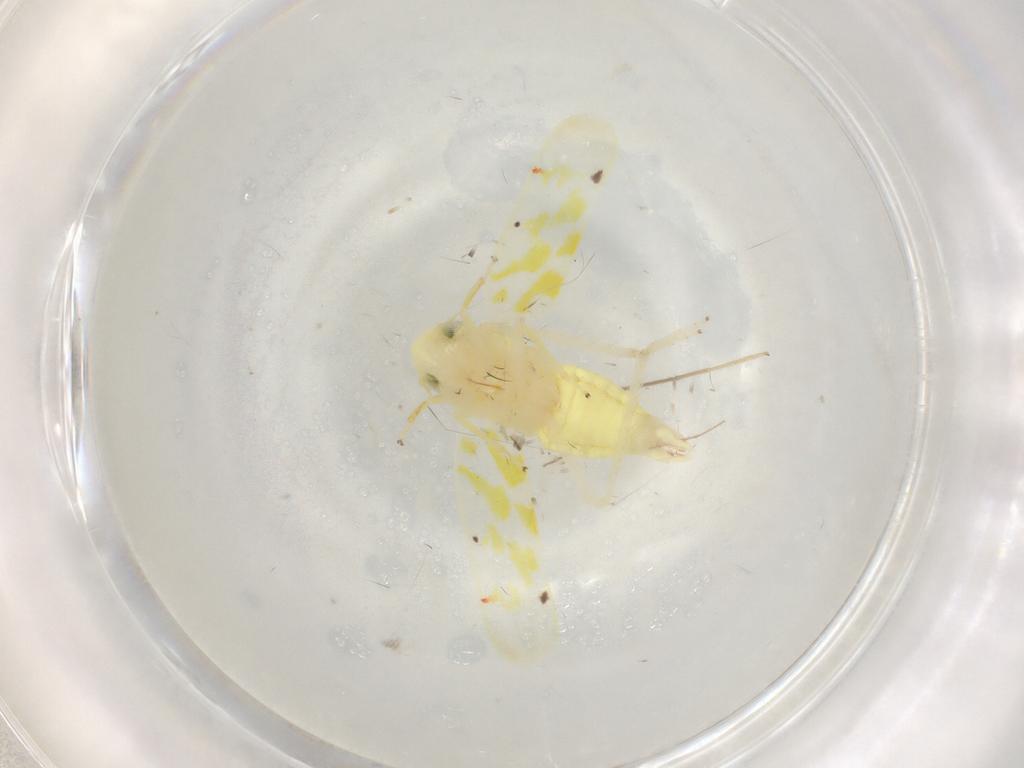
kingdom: Animalia
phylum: Arthropoda
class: Insecta
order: Hemiptera
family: Cicadellidae
